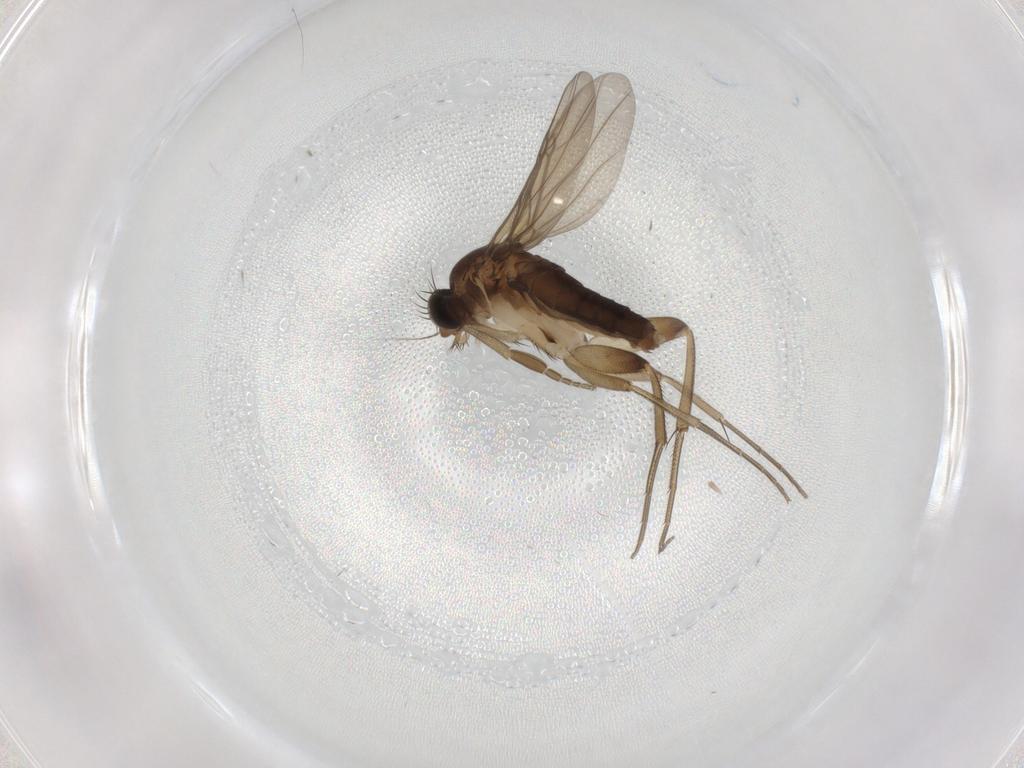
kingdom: Animalia
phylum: Arthropoda
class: Insecta
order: Diptera
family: Phoridae
